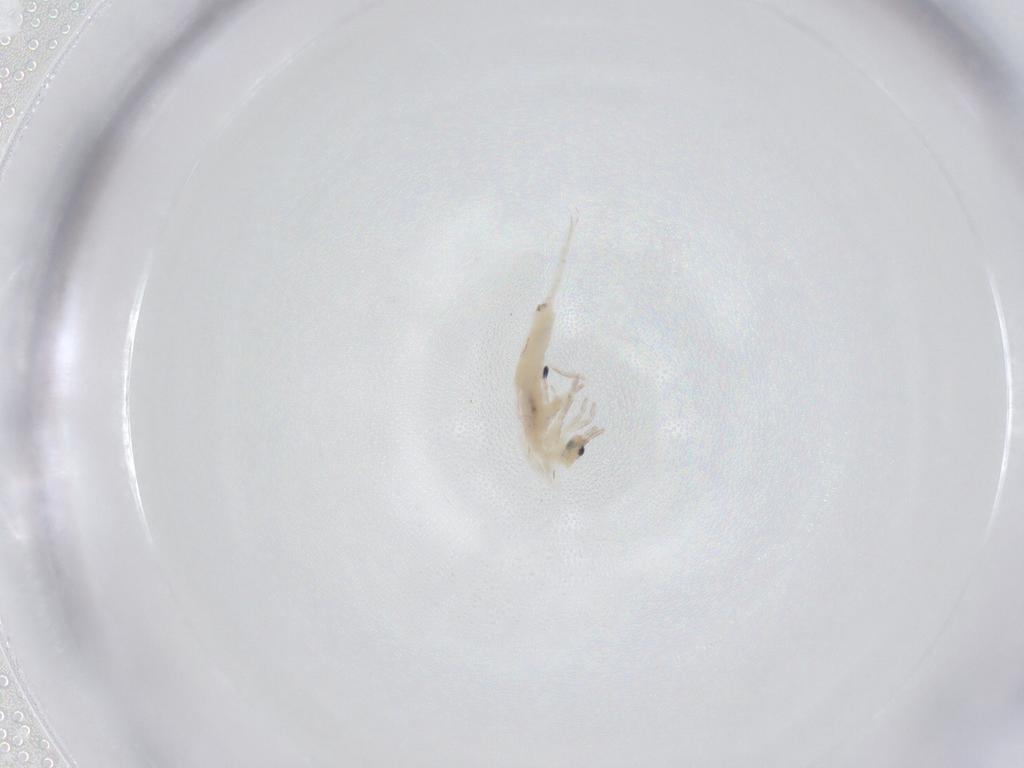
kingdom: Animalia
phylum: Arthropoda
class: Collembola
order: Entomobryomorpha
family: Entomobryidae
